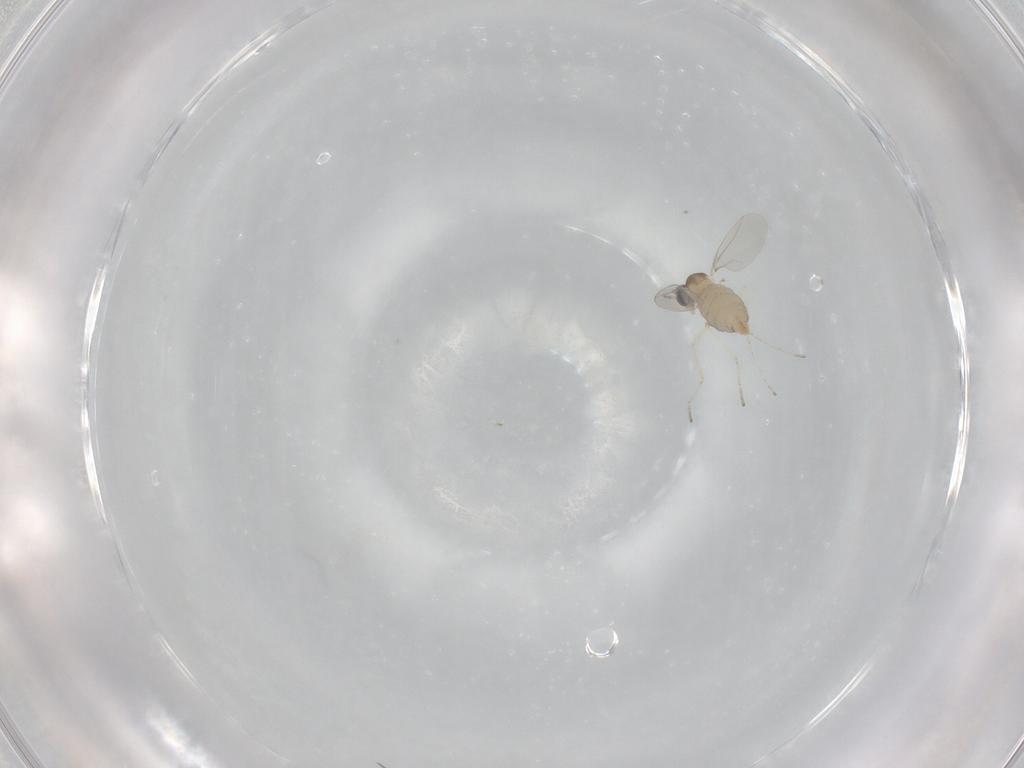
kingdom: Animalia
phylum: Arthropoda
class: Insecta
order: Diptera
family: Cecidomyiidae
